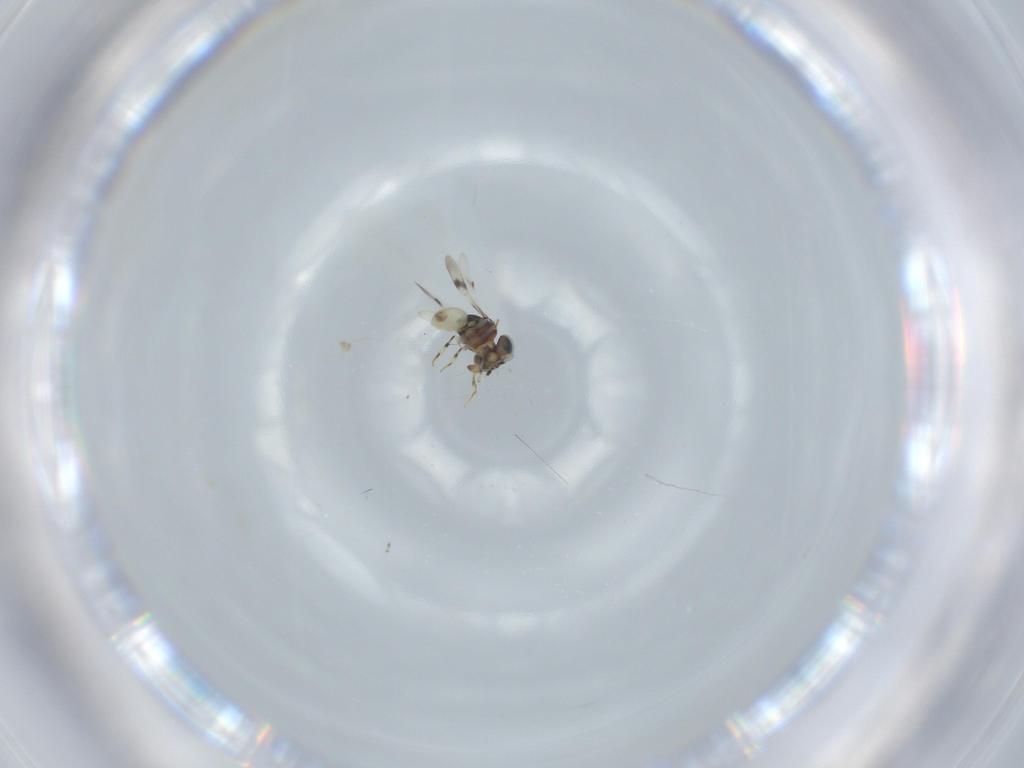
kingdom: Animalia
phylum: Arthropoda
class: Insecta
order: Hymenoptera
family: Scelionidae
